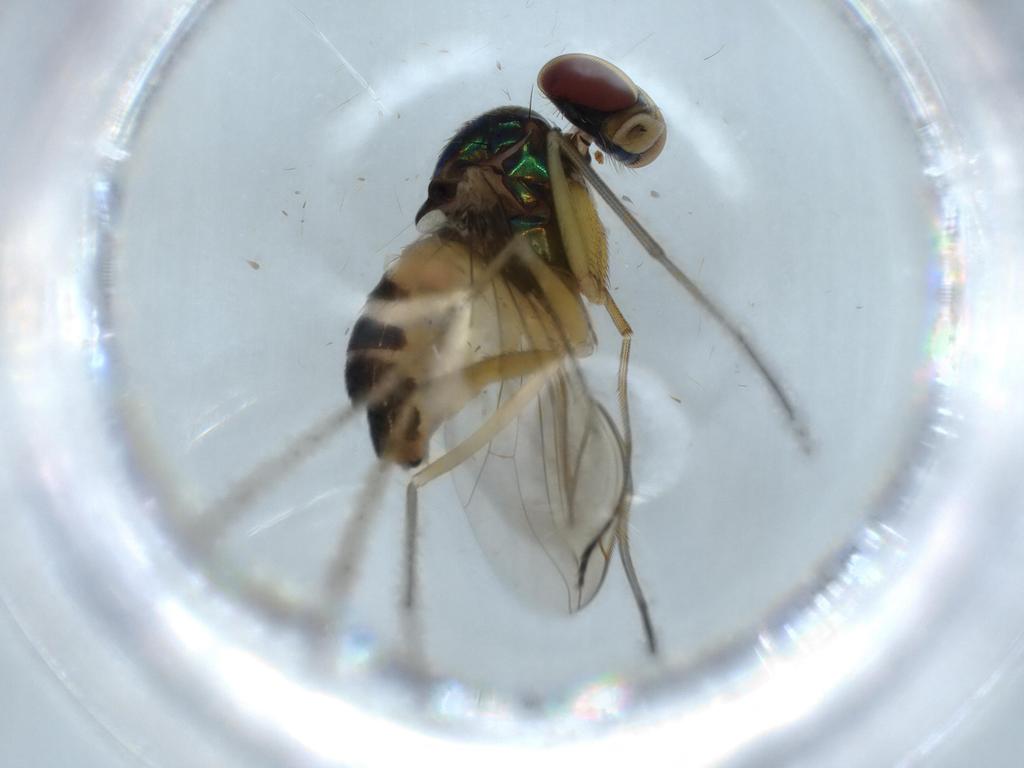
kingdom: Animalia
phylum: Arthropoda
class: Insecta
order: Diptera
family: Dolichopodidae
